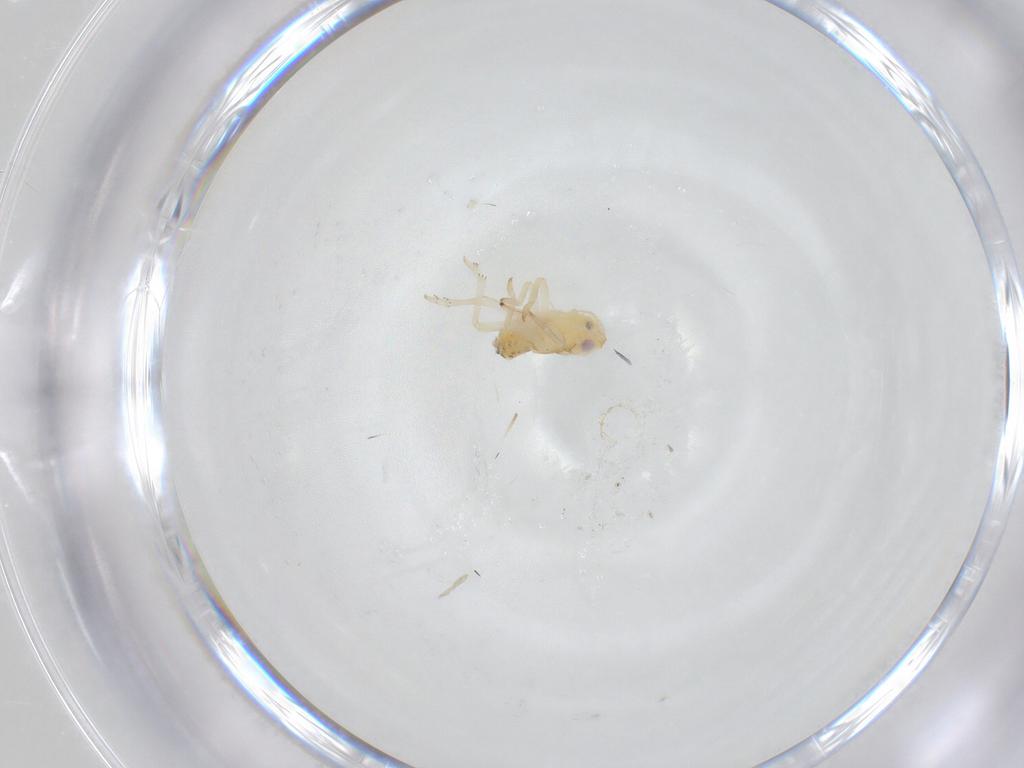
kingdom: Animalia
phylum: Arthropoda
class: Insecta
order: Hemiptera
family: Tropiduchidae
